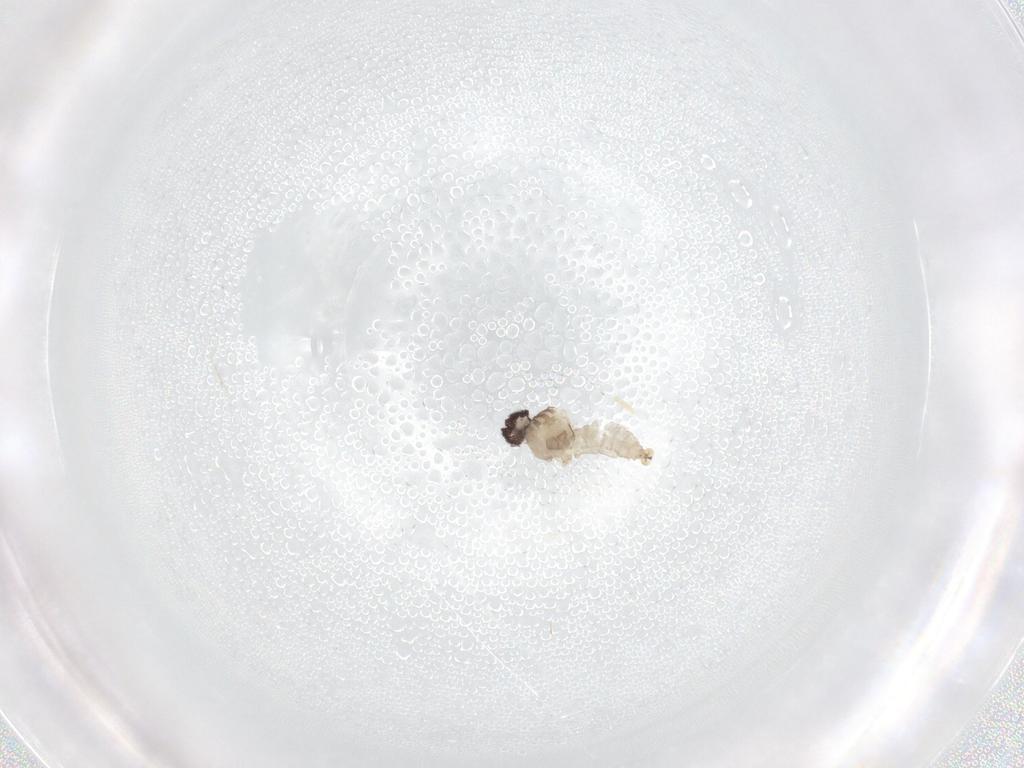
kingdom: Animalia
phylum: Arthropoda
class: Insecta
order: Diptera
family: Cecidomyiidae
